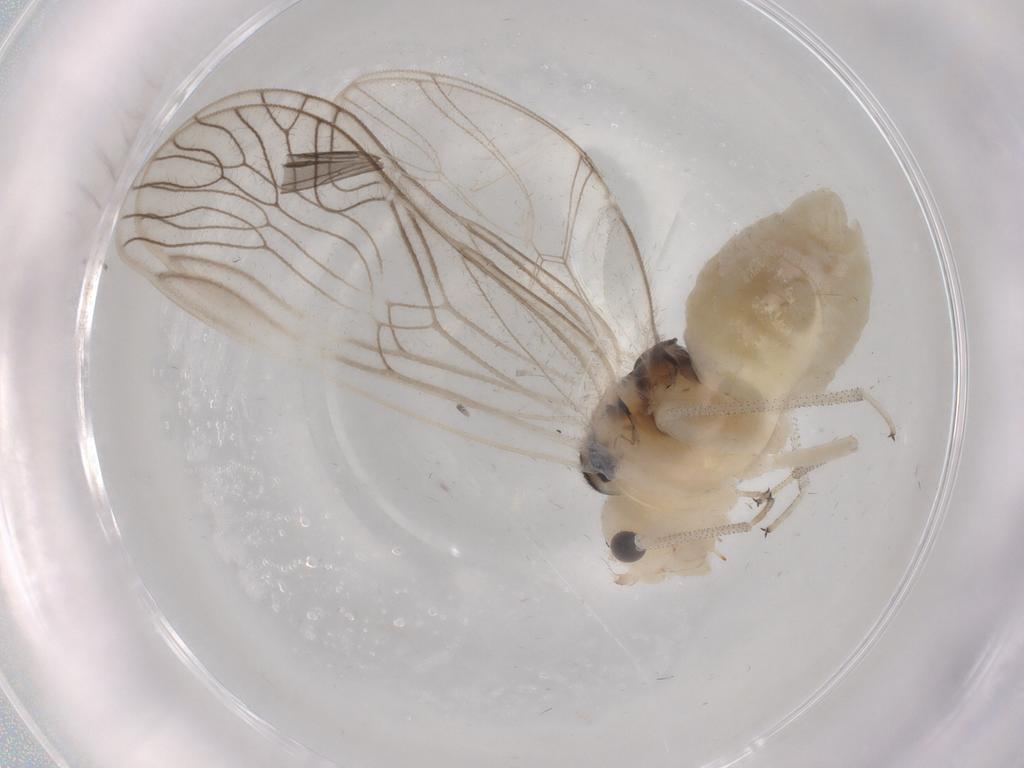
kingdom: Animalia
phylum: Arthropoda
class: Insecta
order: Psocodea
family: Amphipsocidae
